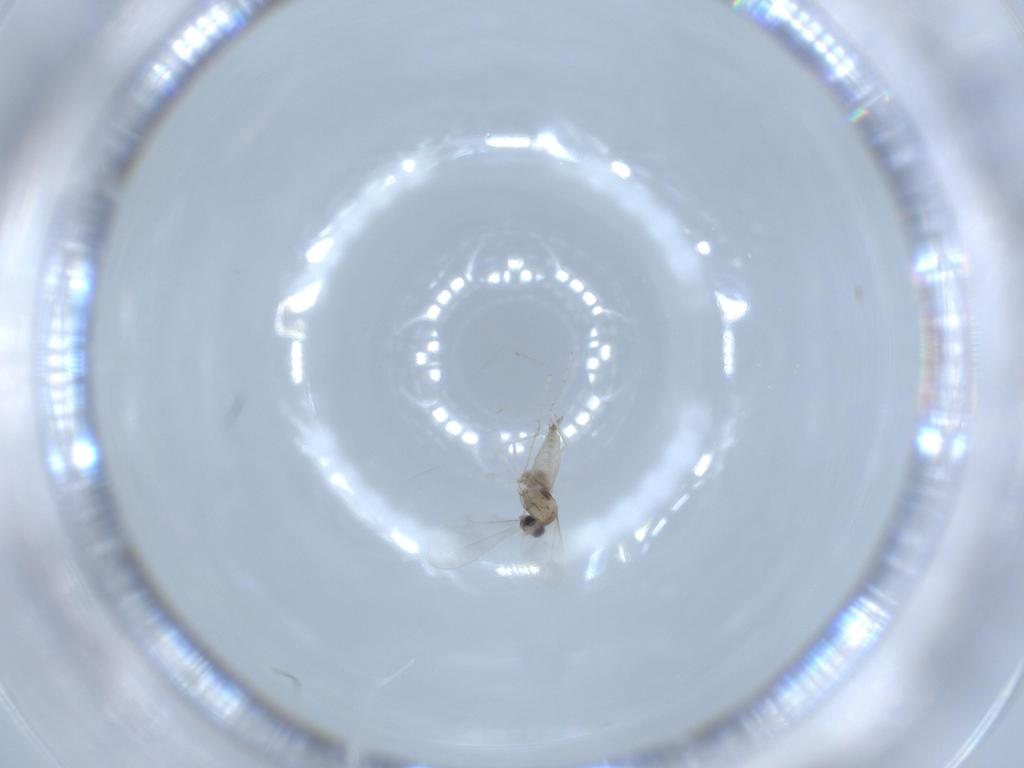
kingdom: Animalia
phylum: Arthropoda
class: Insecta
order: Diptera
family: Cecidomyiidae
